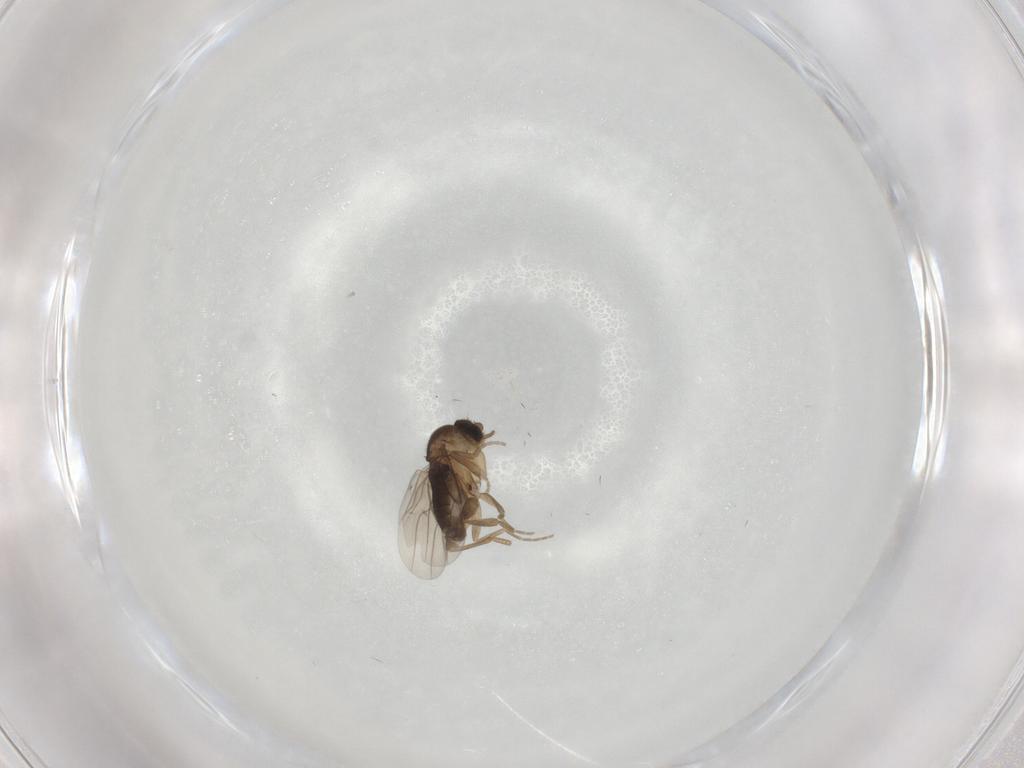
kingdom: Animalia
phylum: Arthropoda
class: Insecta
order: Diptera
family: Phoridae
